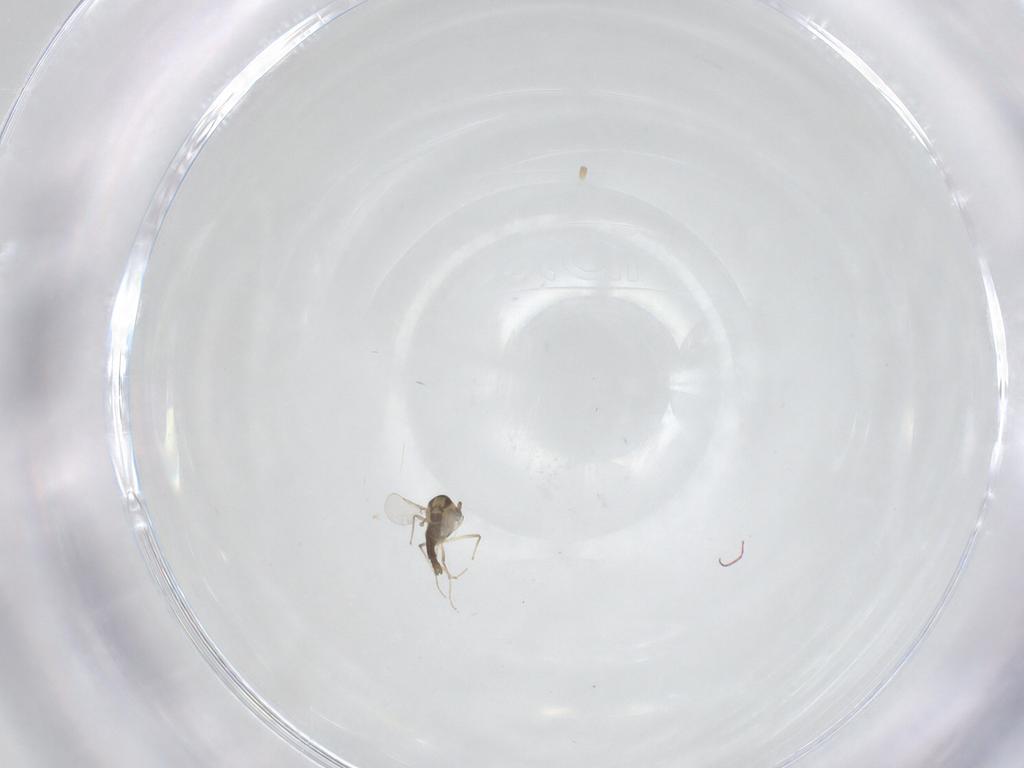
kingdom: Animalia
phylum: Arthropoda
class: Insecta
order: Diptera
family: Chironomidae
